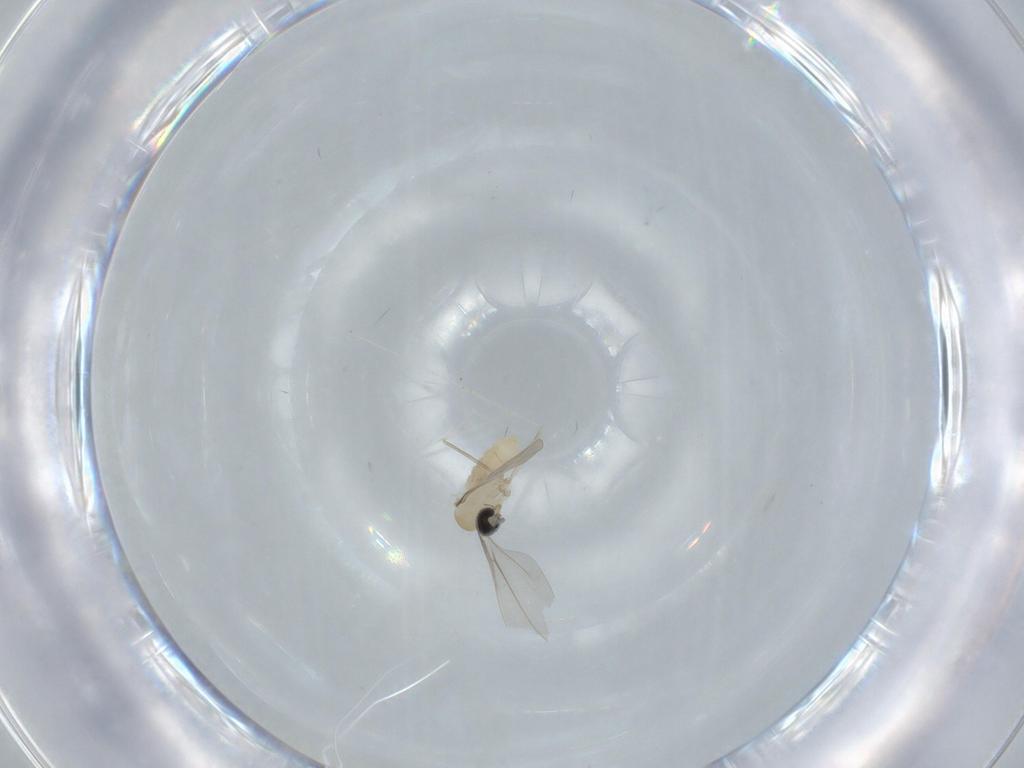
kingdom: Animalia
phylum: Arthropoda
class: Insecta
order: Diptera
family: Cecidomyiidae
